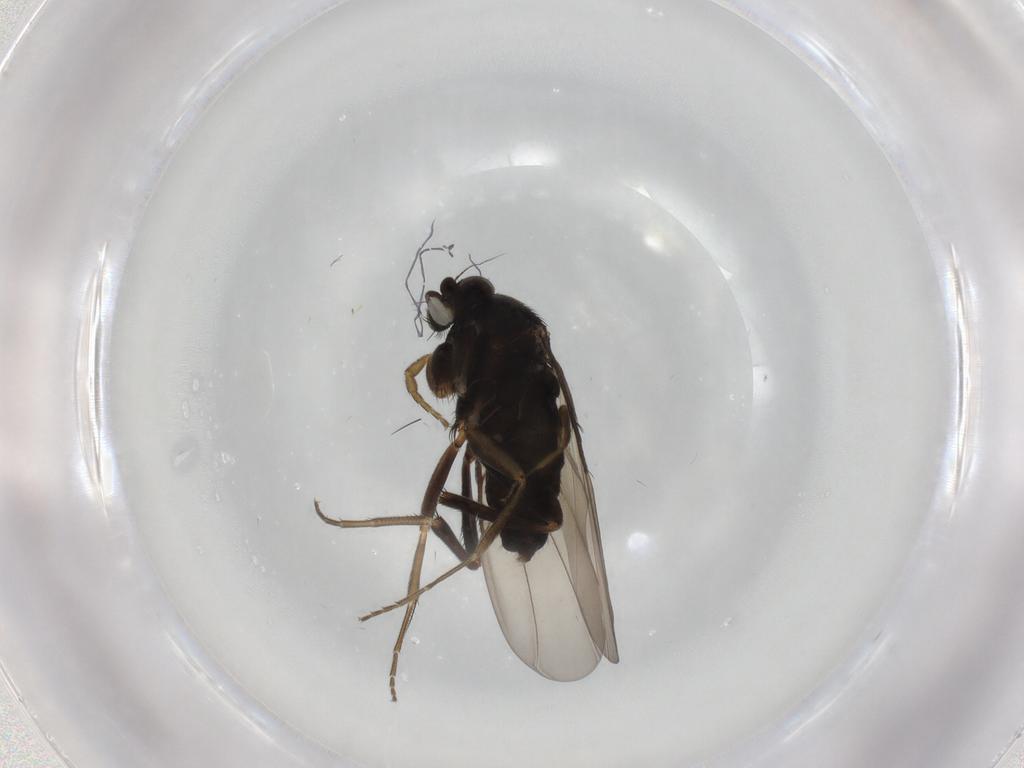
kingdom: Animalia
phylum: Arthropoda
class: Insecta
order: Diptera
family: Phoridae
